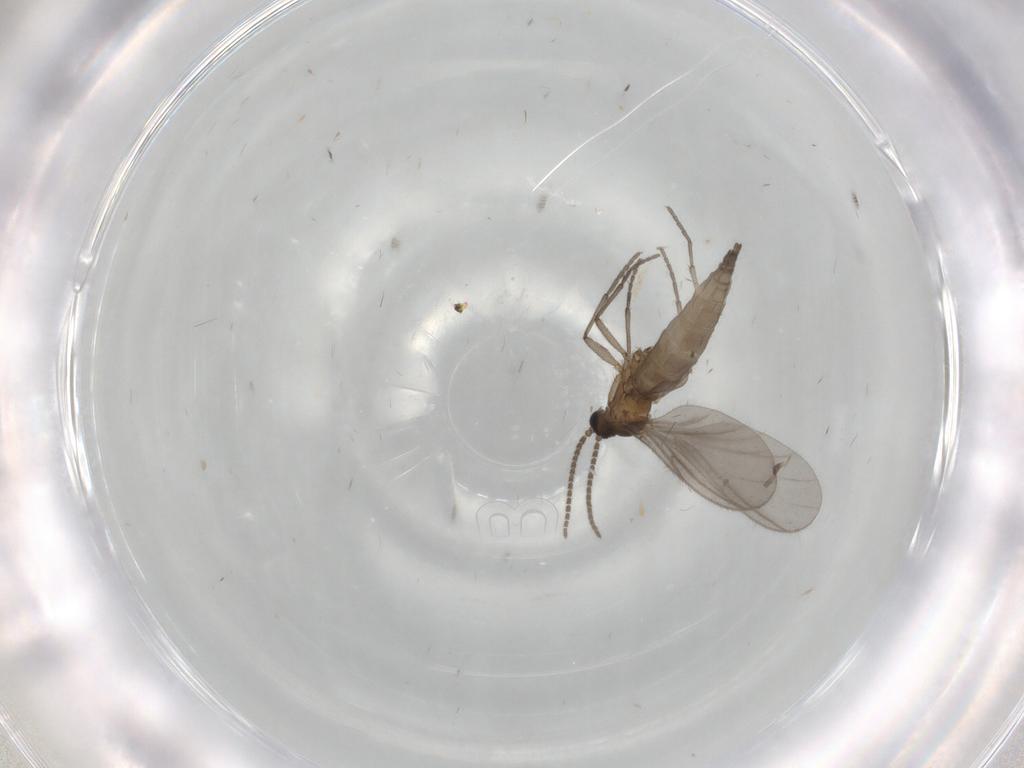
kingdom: Animalia
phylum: Arthropoda
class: Insecta
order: Diptera
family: Sciaridae
